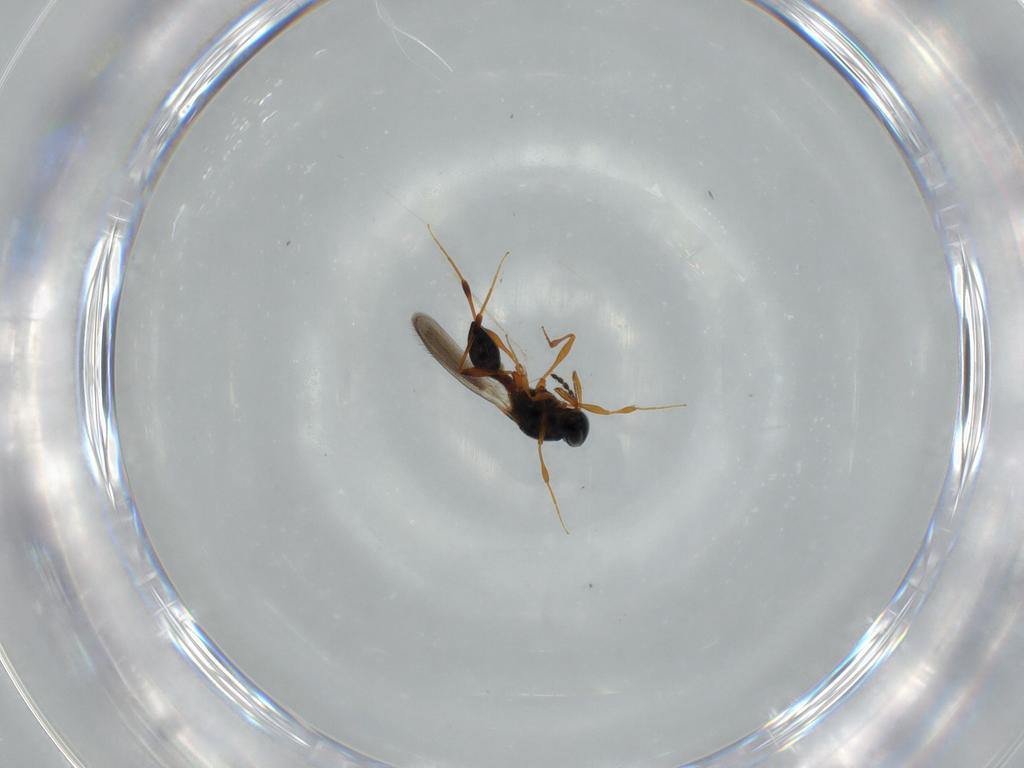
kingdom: Animalia
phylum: Arthropoda
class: Insecta
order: Hymenoptera
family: Platygastridae
